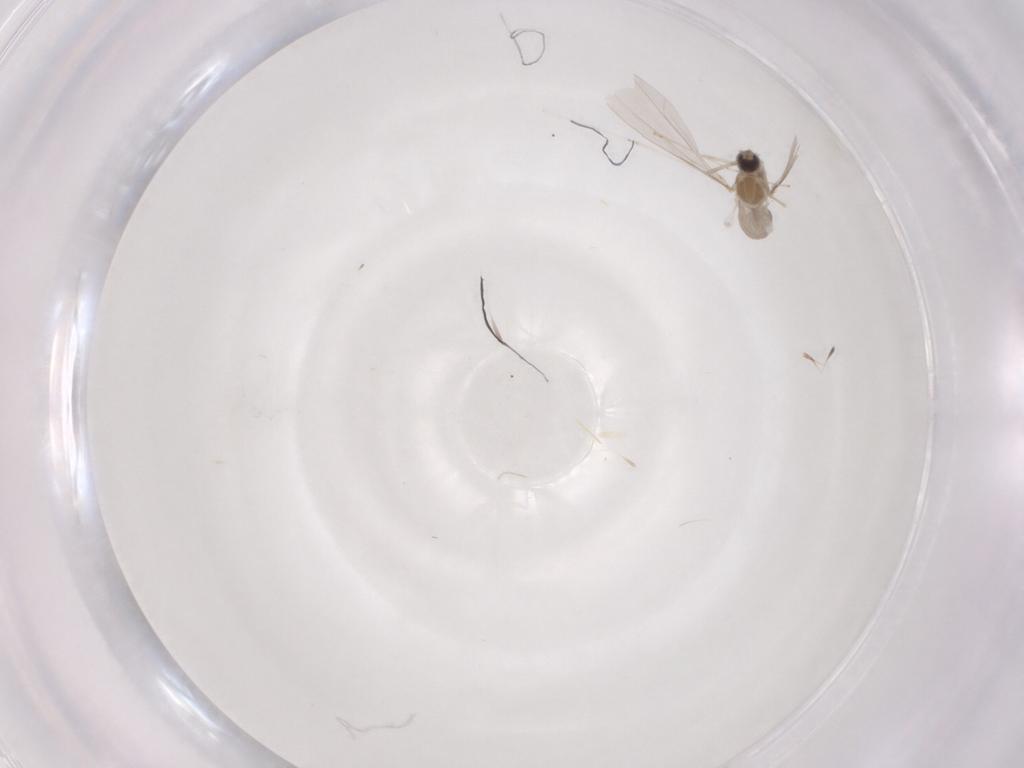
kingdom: Animalia
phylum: Arthropoda
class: Insecta
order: Diptera
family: Cecidomyiidae
